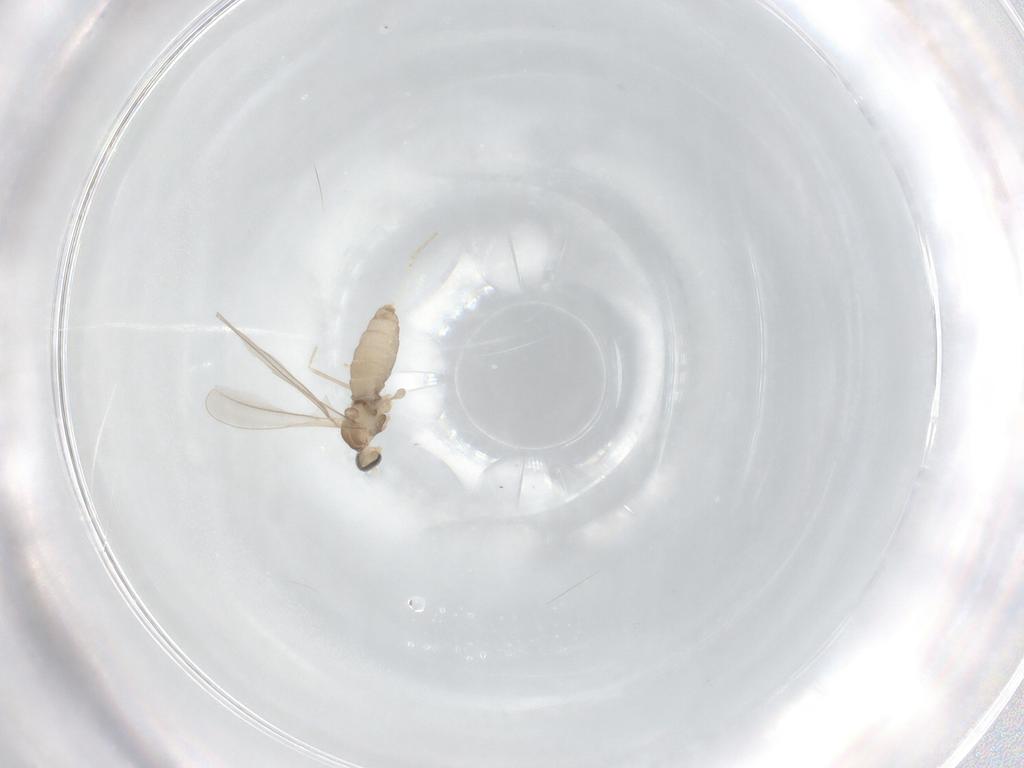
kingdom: Animalia
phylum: Arthropoda
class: Insecta
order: Diptera
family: Cecidomyiidae
